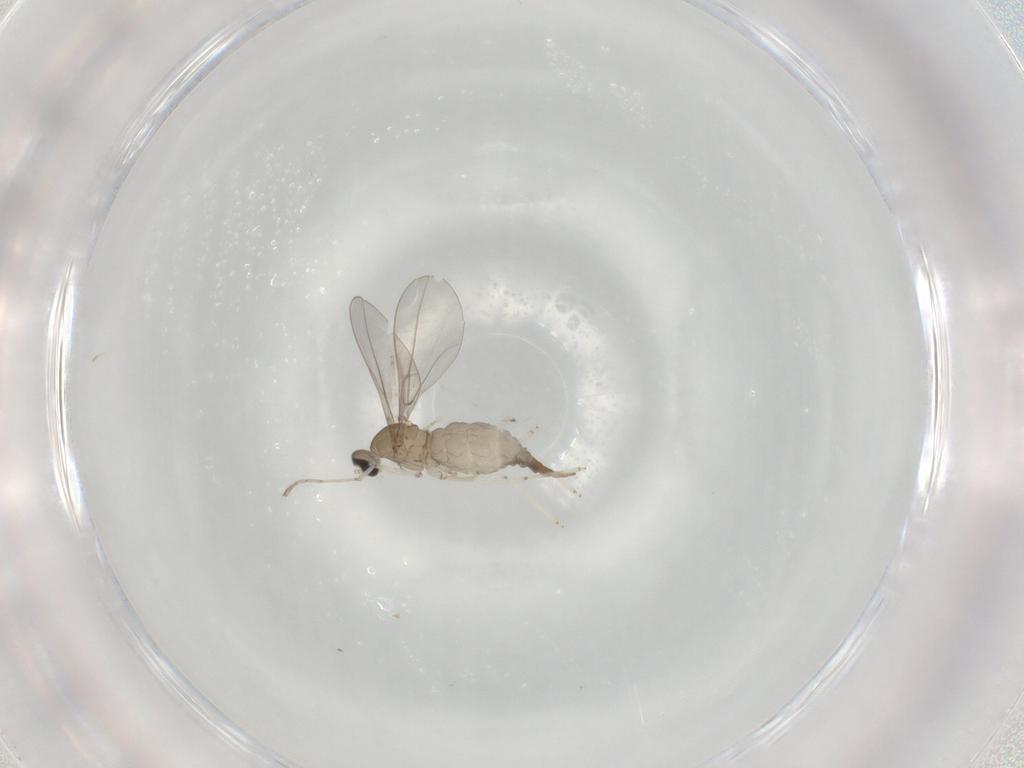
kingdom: Animalia
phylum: Arthropoda
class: Insecta
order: Diptera
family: Cecidomyiidae
